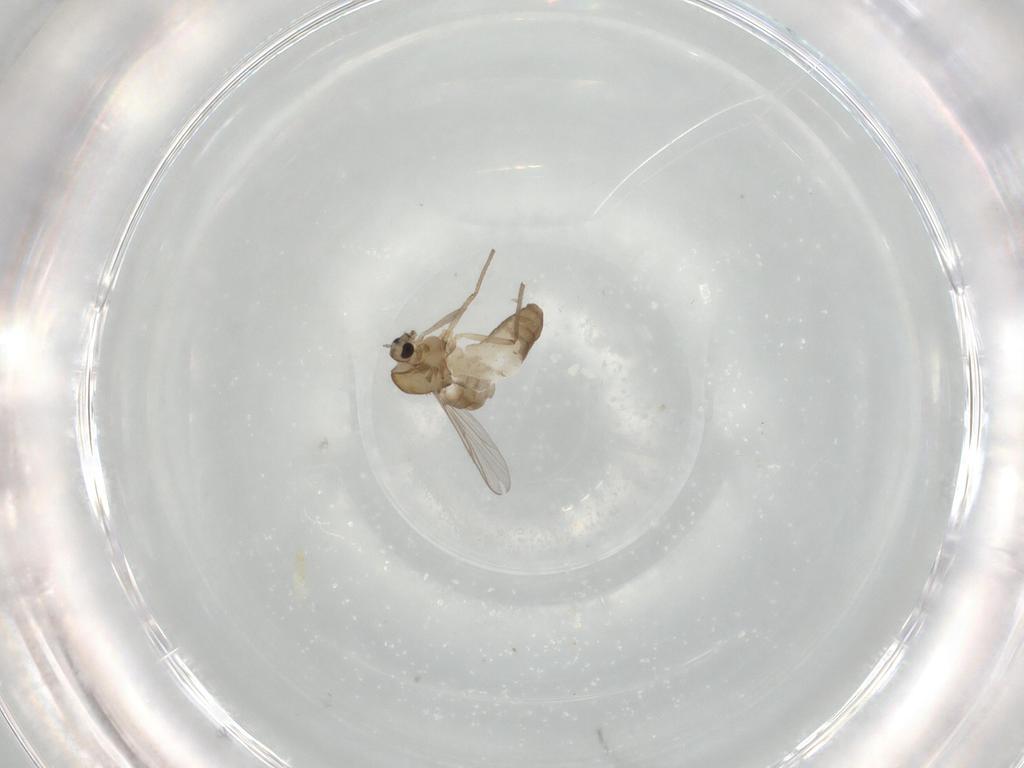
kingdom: Animalia
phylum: Arthropoda
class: Insecta
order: Diptera
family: Chironomidae
